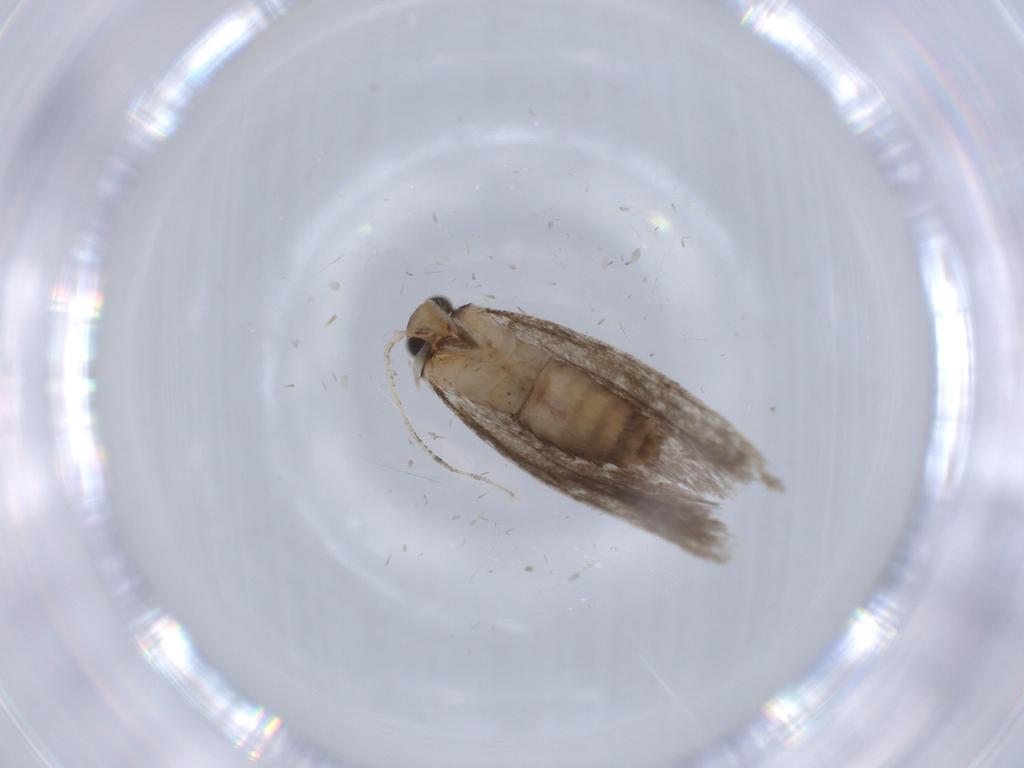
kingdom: Animalia
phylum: Arthropoda
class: Insecta
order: Lepidoptera
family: Tineidae
